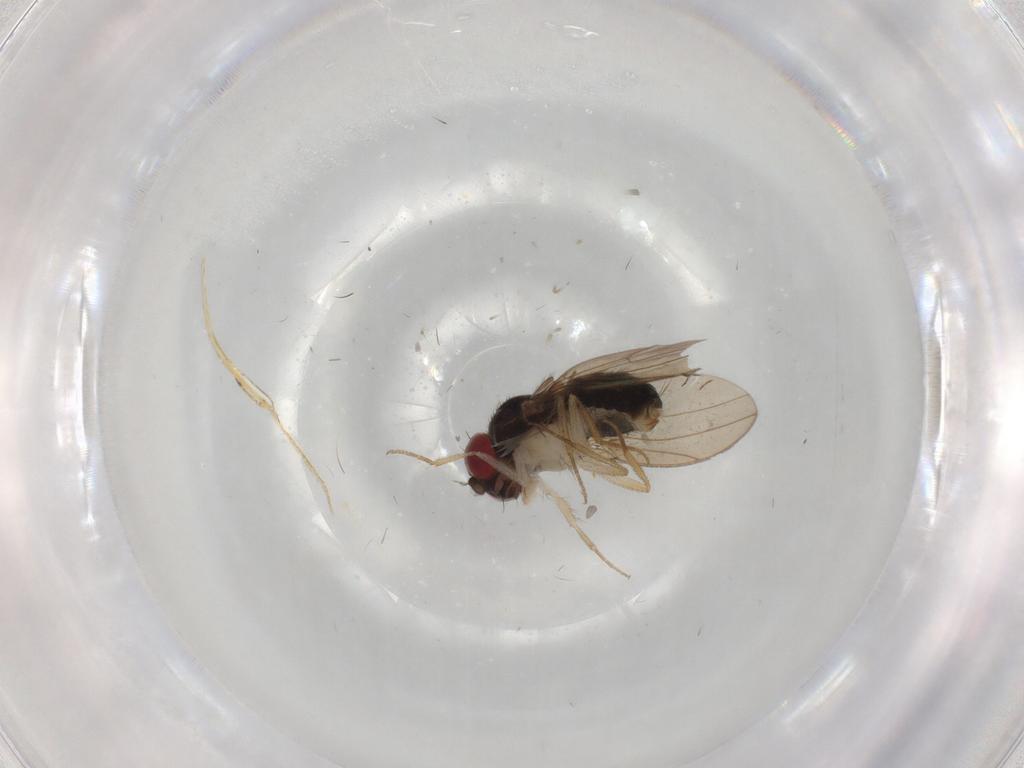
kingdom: Animalia
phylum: Arthropoda
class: Insecta
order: Diptera
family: Drosophilidae
